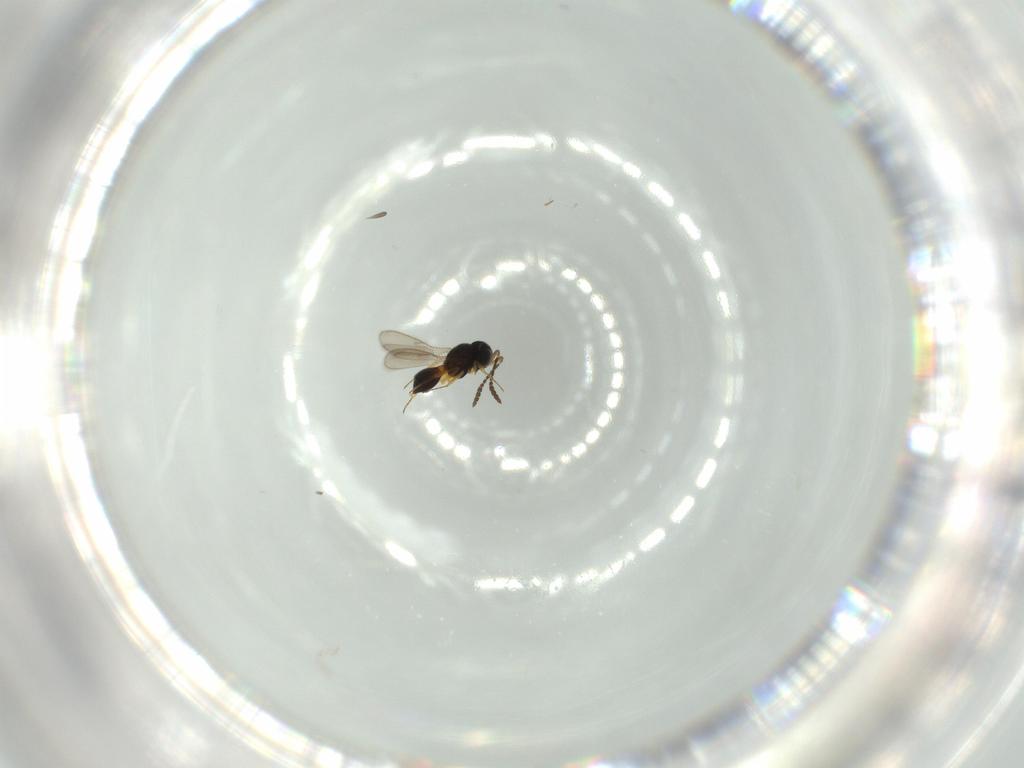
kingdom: Animalia
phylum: Arthropoda
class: Insecta
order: Hymenoptera
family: Scelionidae
